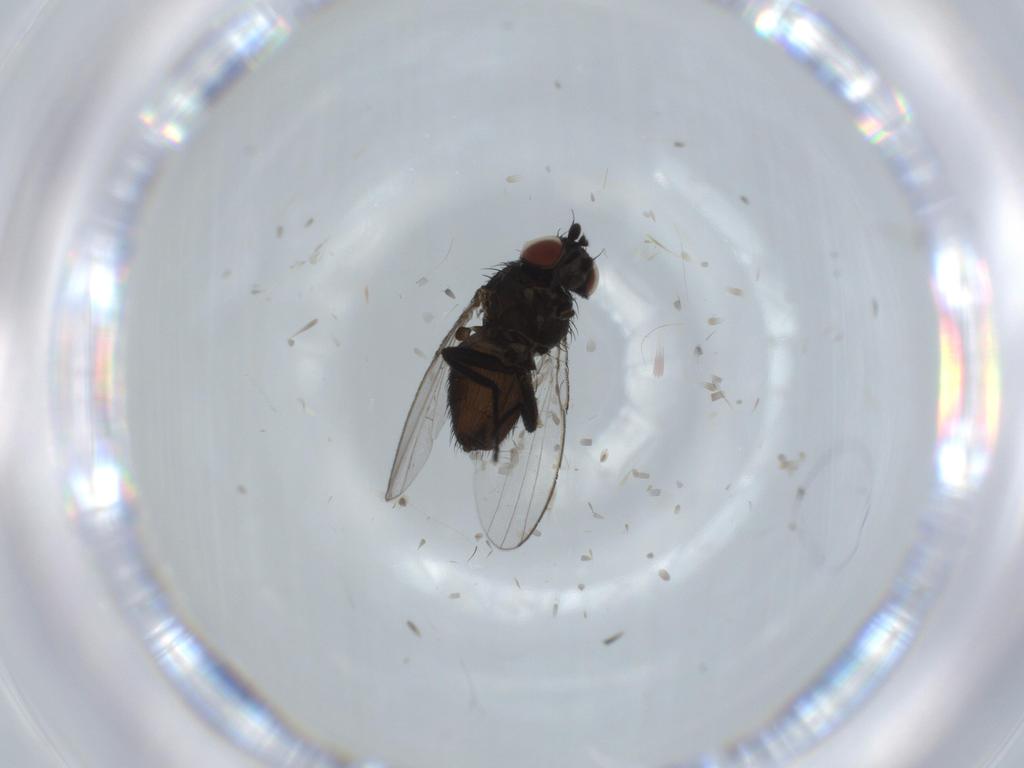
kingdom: Animalia
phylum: Arthropoda
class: Insecta
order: Diptera
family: Milichiidae
